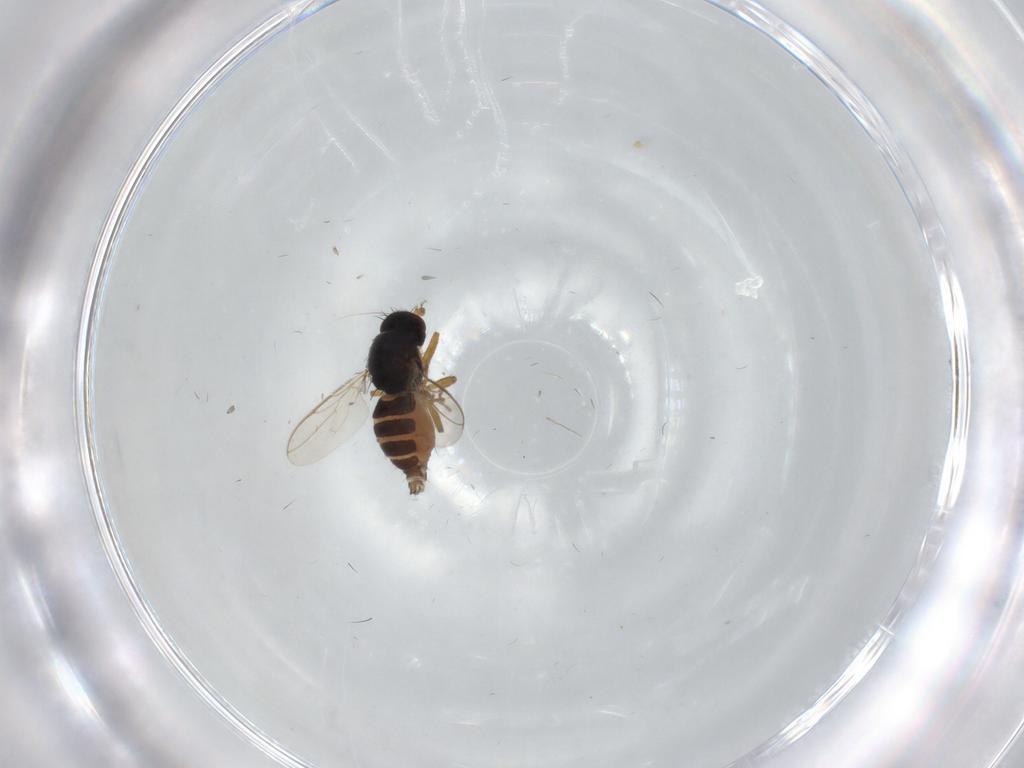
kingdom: Animalia
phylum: Arthropoda
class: Insecta
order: Diptera
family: Sphaeroceridae
